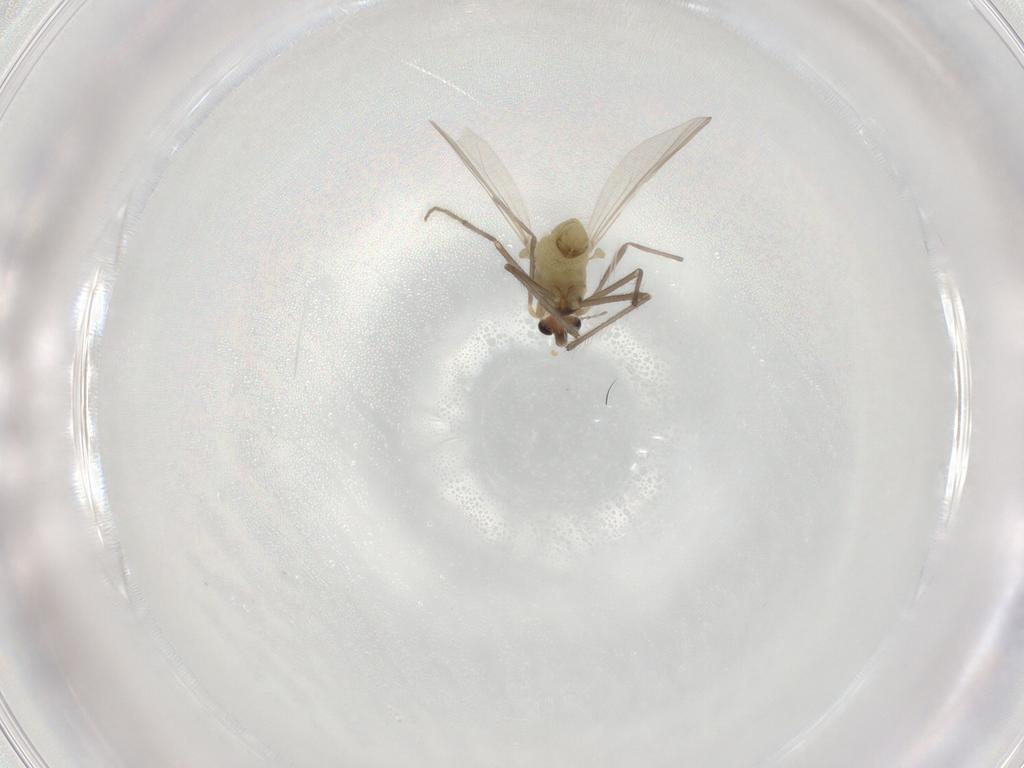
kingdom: Animalia
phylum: Arthropoda
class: Insecta
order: Diptera
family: Chironomidae
